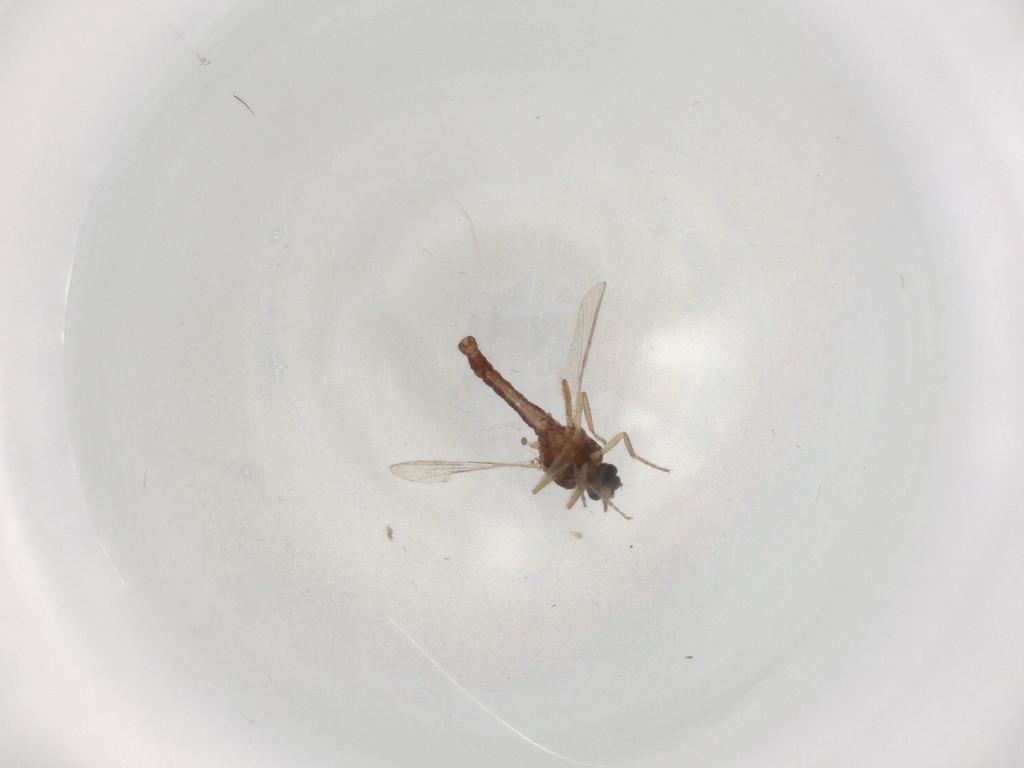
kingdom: Animalia
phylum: Arthropoda
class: Insecta
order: Diptera
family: Ceratopogonidae
